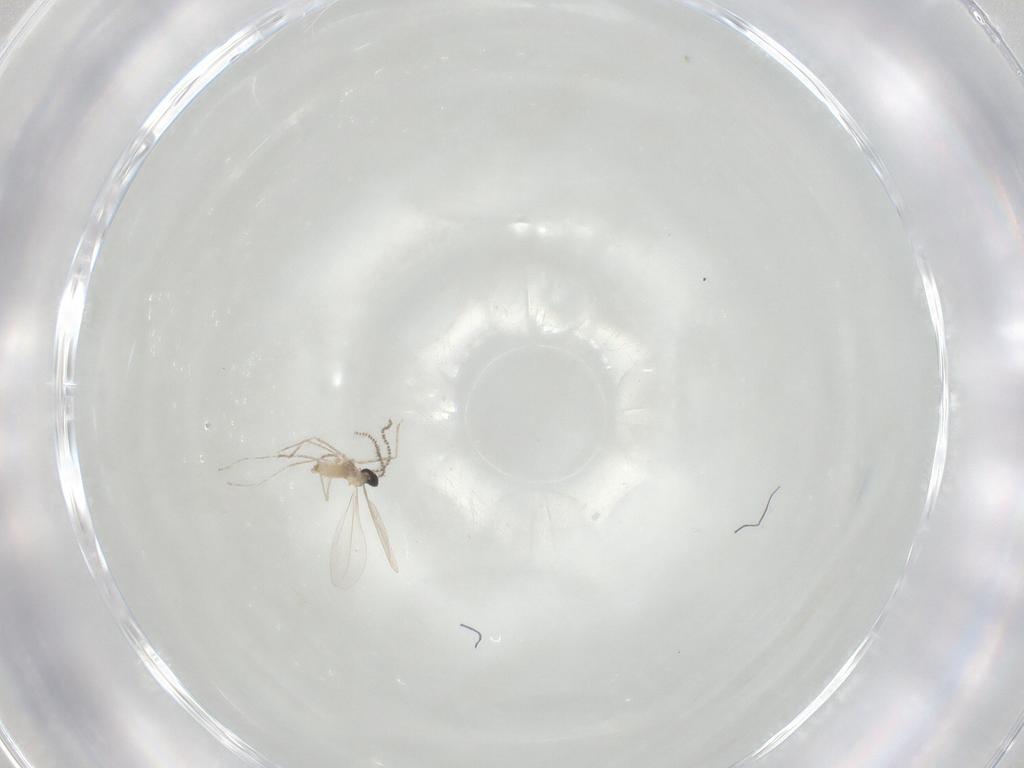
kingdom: Animalia
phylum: Arthropoda
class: Insecta
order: Diptera
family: Cecidomyiidae
